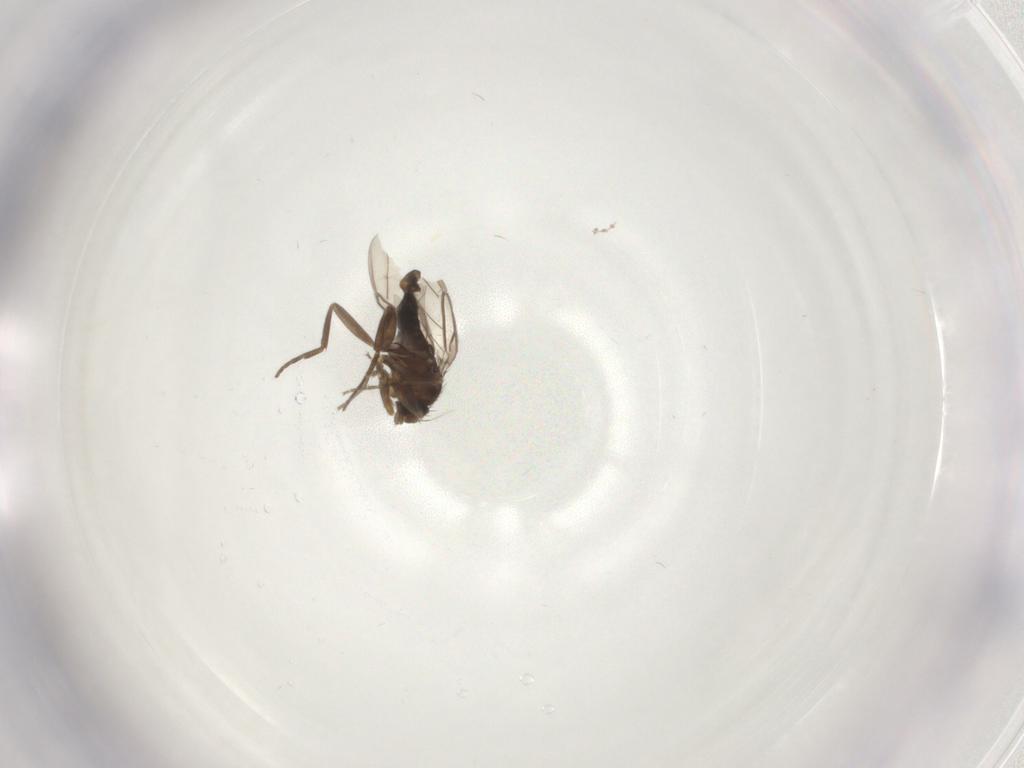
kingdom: Animalia
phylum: Arthropoda
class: Insecta
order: Diptera
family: Phoridae
